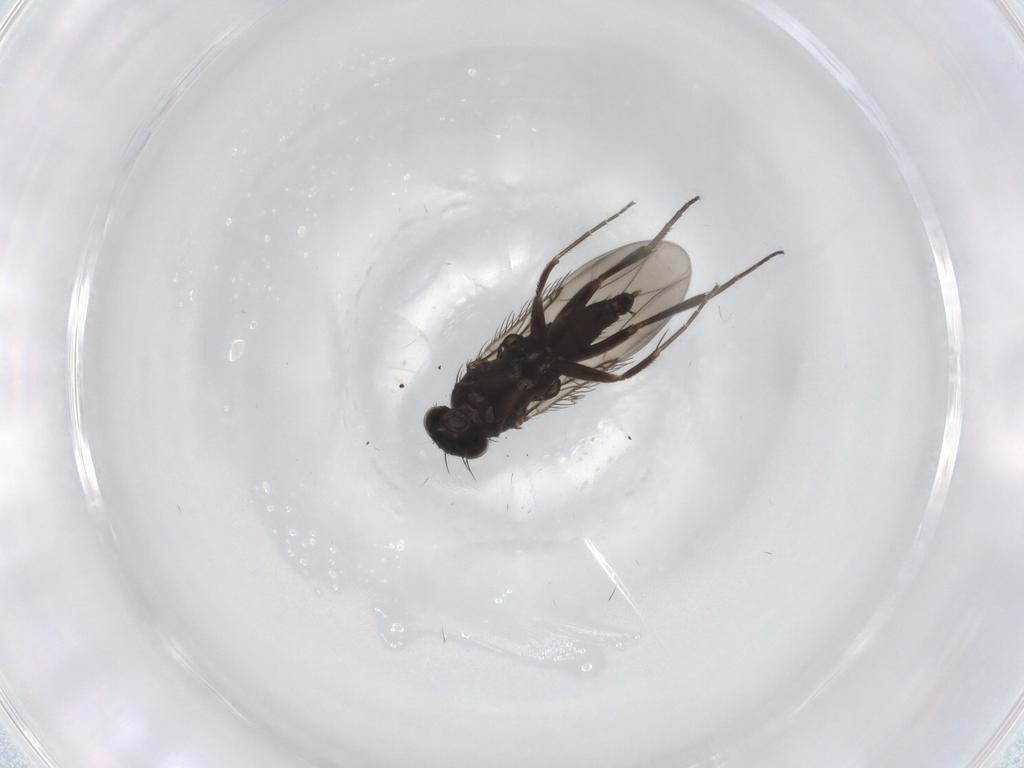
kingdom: Animalia
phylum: Arthropoda
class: Insecta
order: Diptera
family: Phoridae
